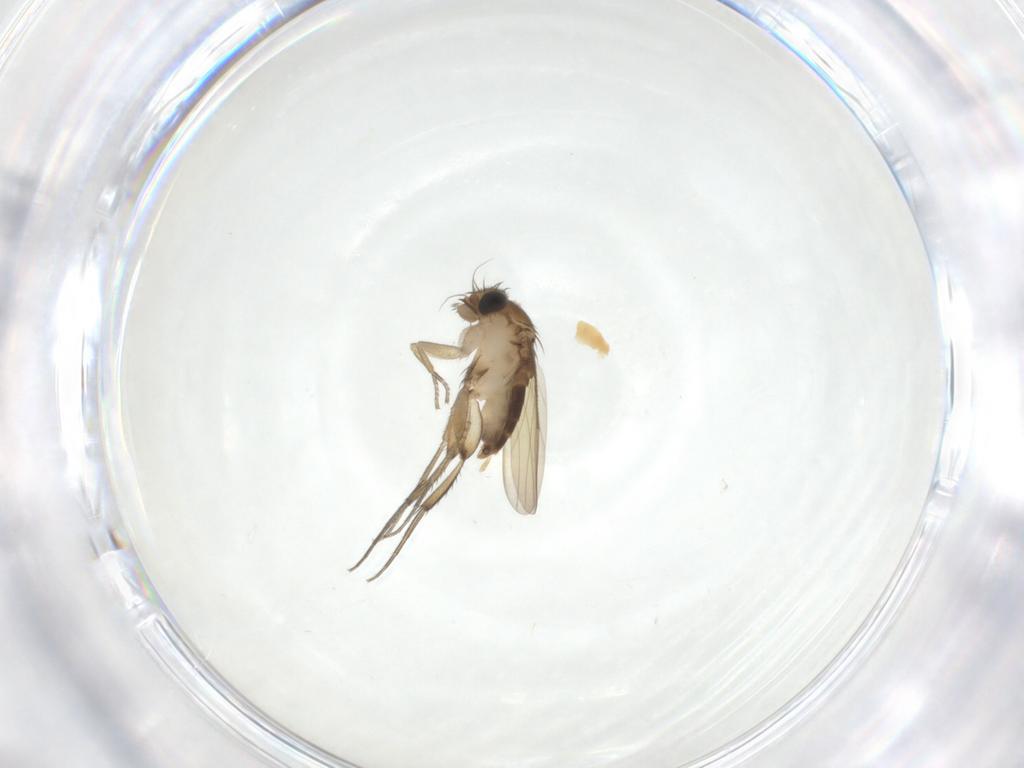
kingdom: Animalia
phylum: Arthropoda
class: Insecta
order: Diptera
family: Phoridae
